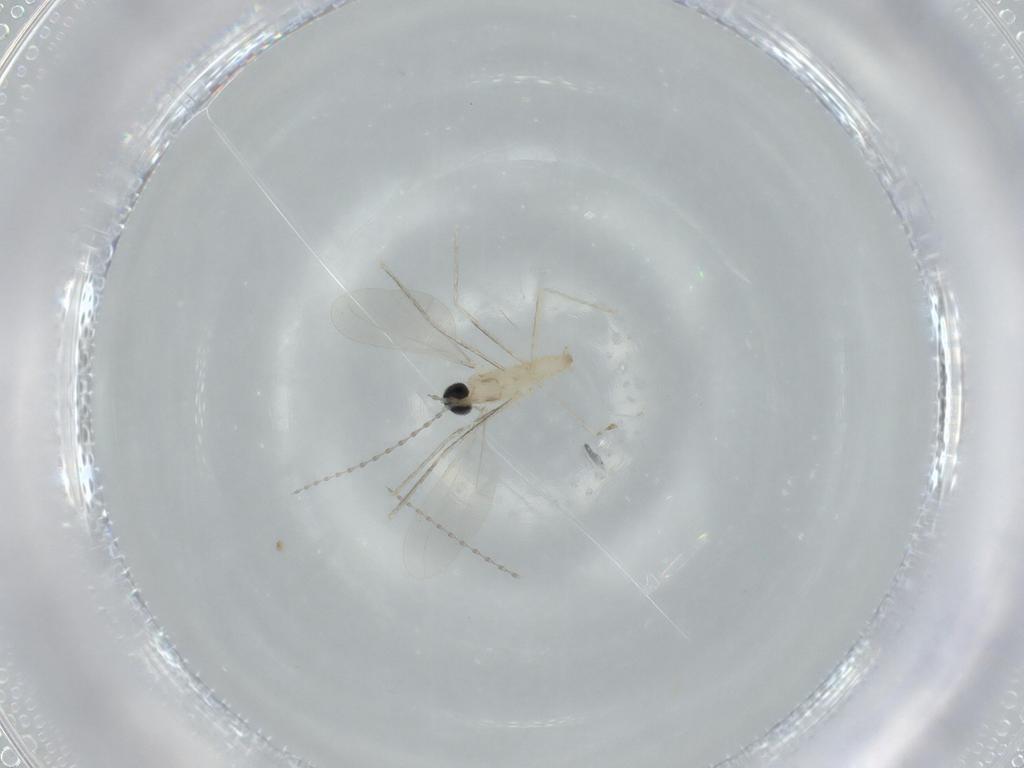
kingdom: Animalia
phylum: Arthropoda
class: Insecta
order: Diptera
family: Cecidomyiidae
